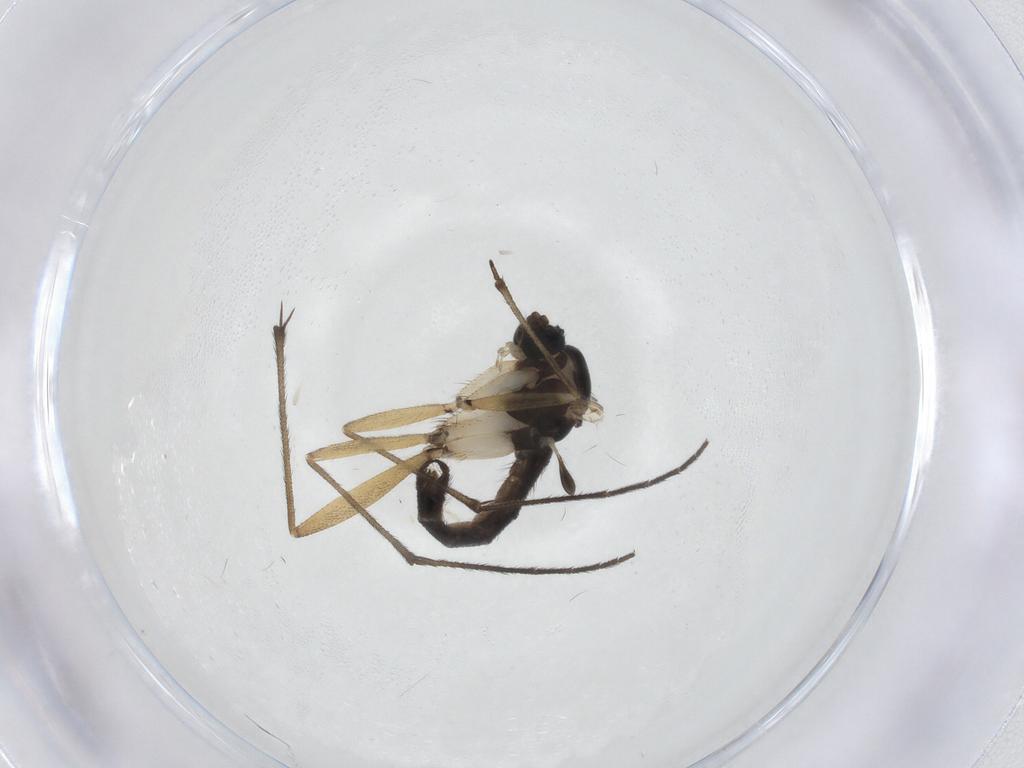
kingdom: Animalia
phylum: Arthropoda
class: Insecta
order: Diptera
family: Sciaridae
